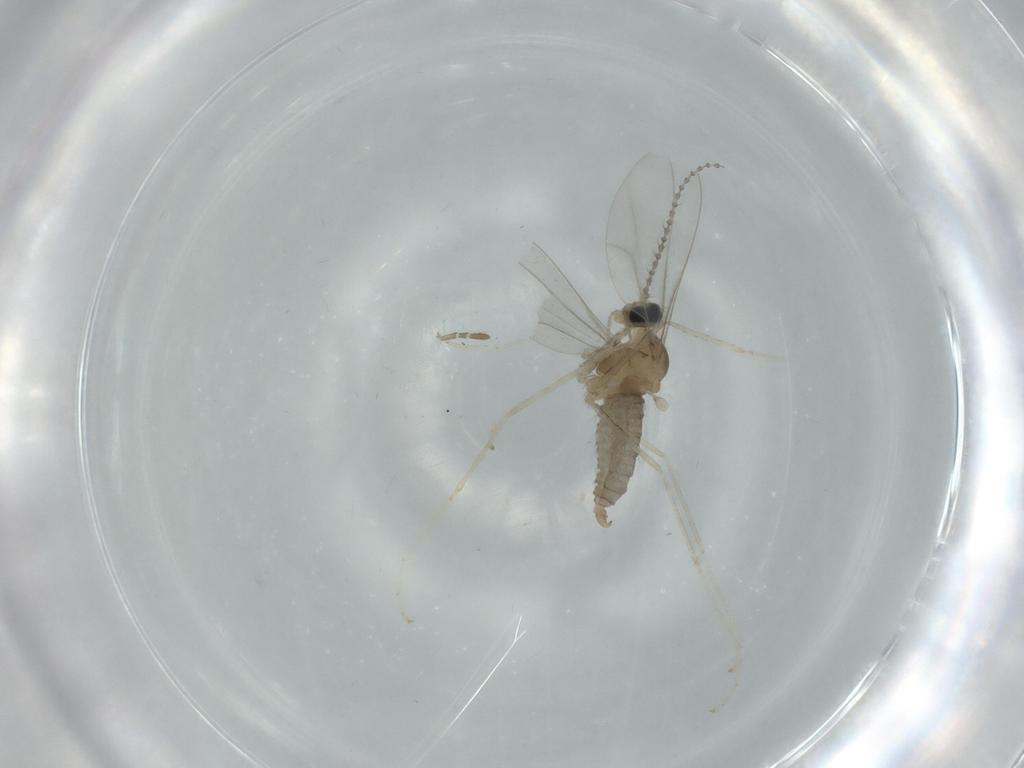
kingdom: Animalia
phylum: Arthropoda
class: Insecta
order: Diptera
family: Cecidomyiidae
